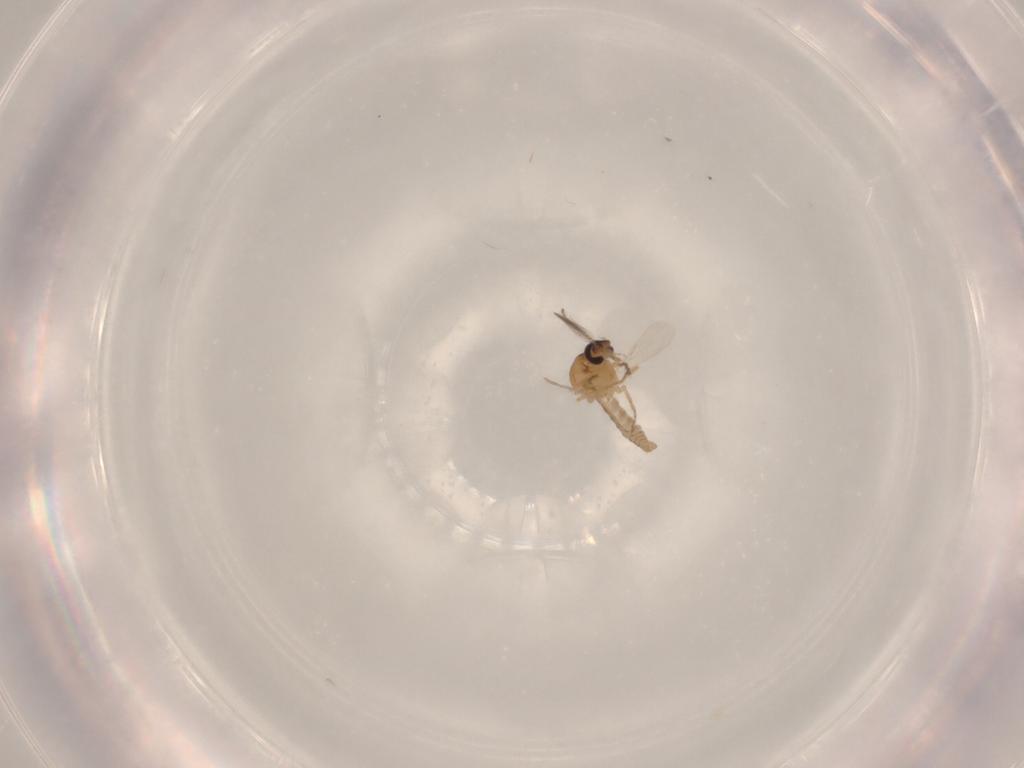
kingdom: Animalia
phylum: Arthropoda
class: Insecta
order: Diptera
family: Ceratopogonidae
